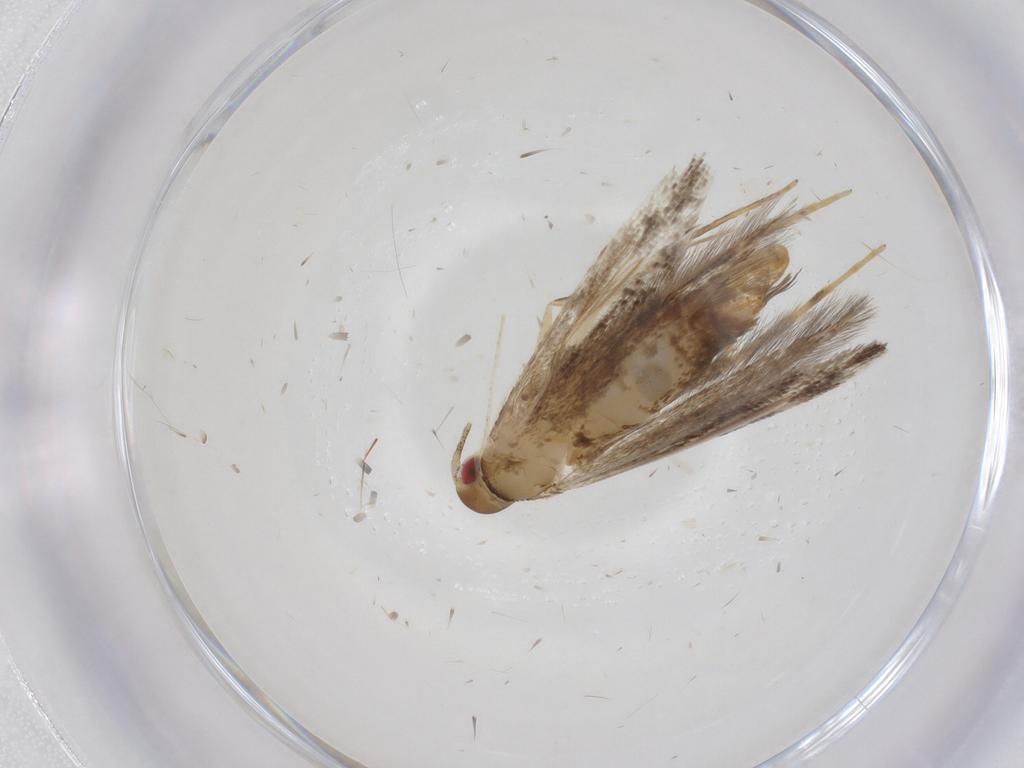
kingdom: Animalia
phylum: Arthropoda
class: Insecta
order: Lepidoptera
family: Cosmopterigidae
